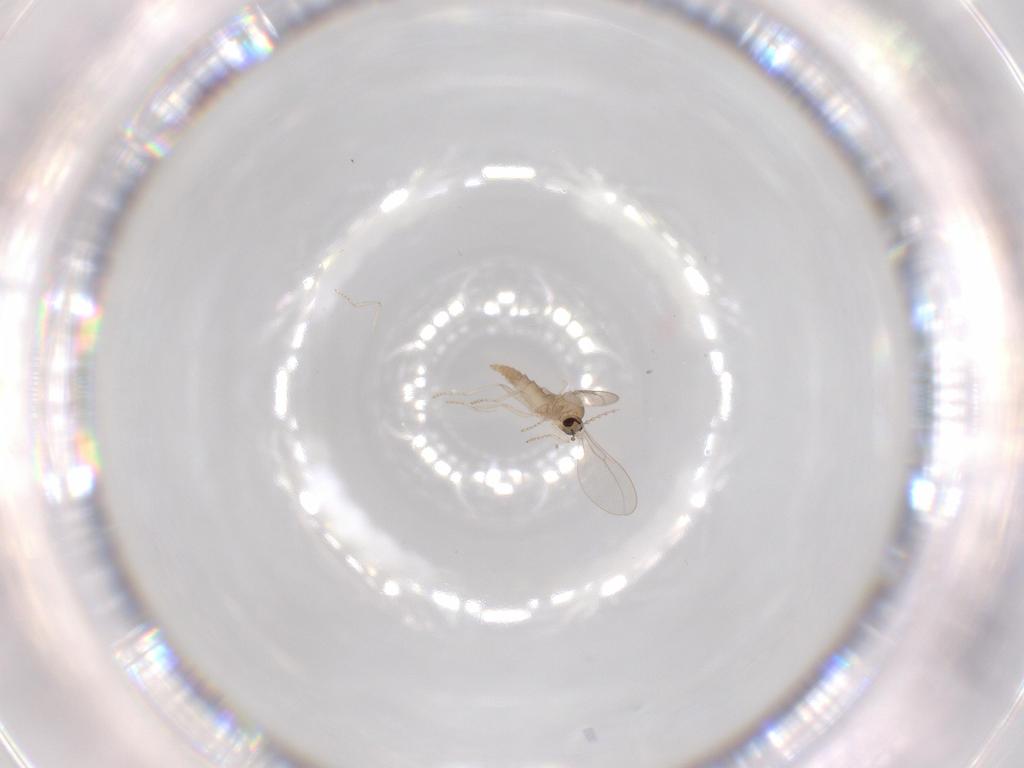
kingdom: Animalia
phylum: Arthropoda
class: Insecta
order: Diptera
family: Cecidomyiidae
